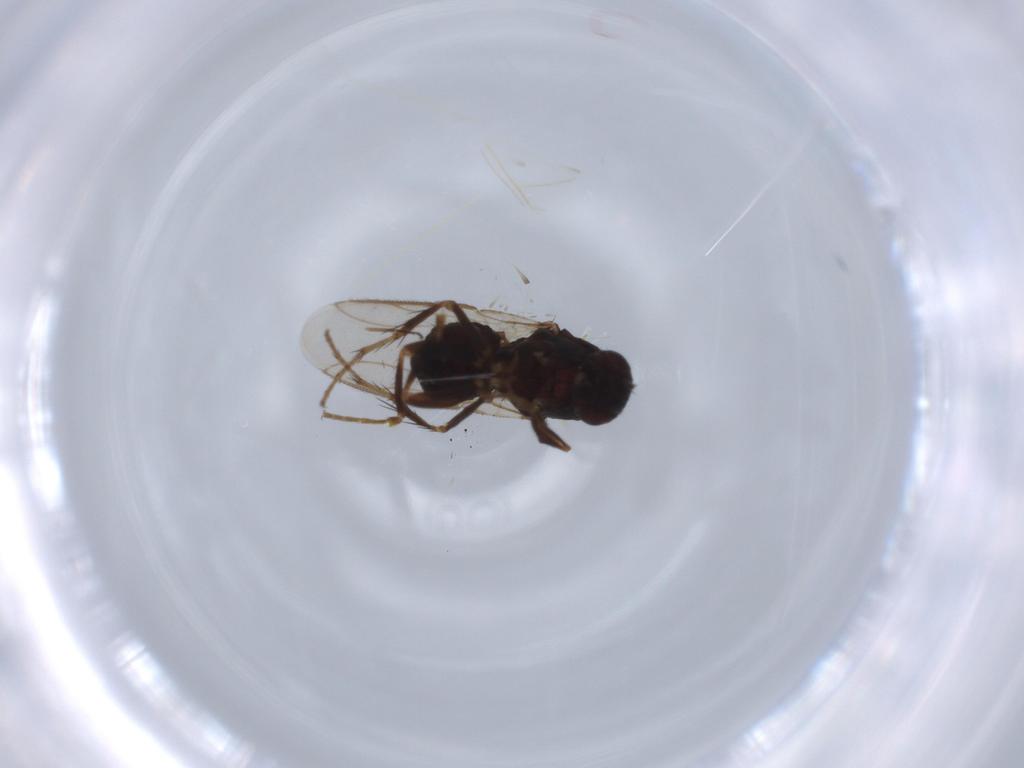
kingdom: Animalia
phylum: Arthropoda
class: Insecta
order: Diptera
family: Sphaeroceridae
